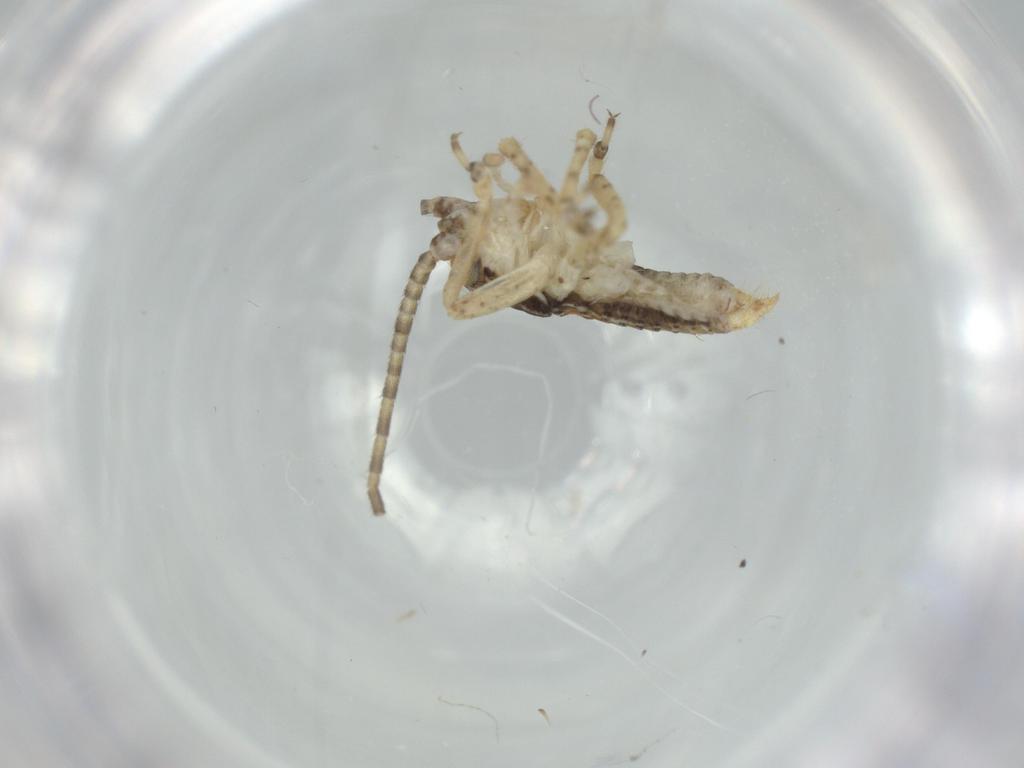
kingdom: Animalia
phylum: Arthropoda
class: Insecta
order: Orthoptera
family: Gryllidae
